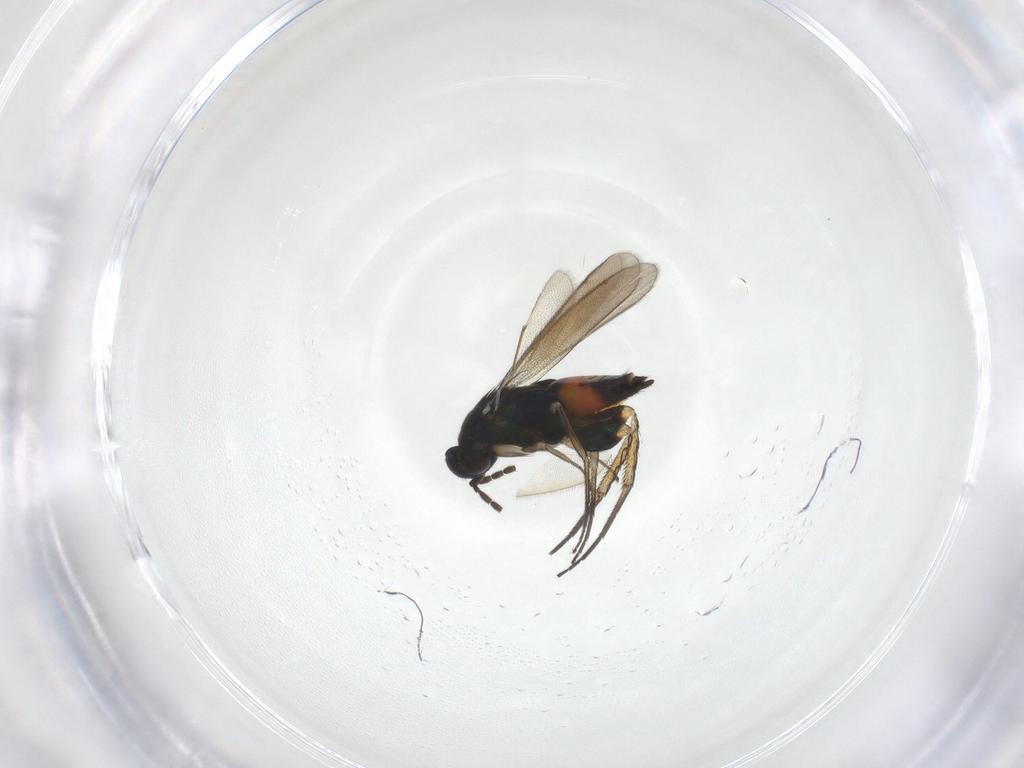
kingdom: Animalia
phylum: Arthropoda
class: Insecta
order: Hymenoptera
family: Eulophidae
